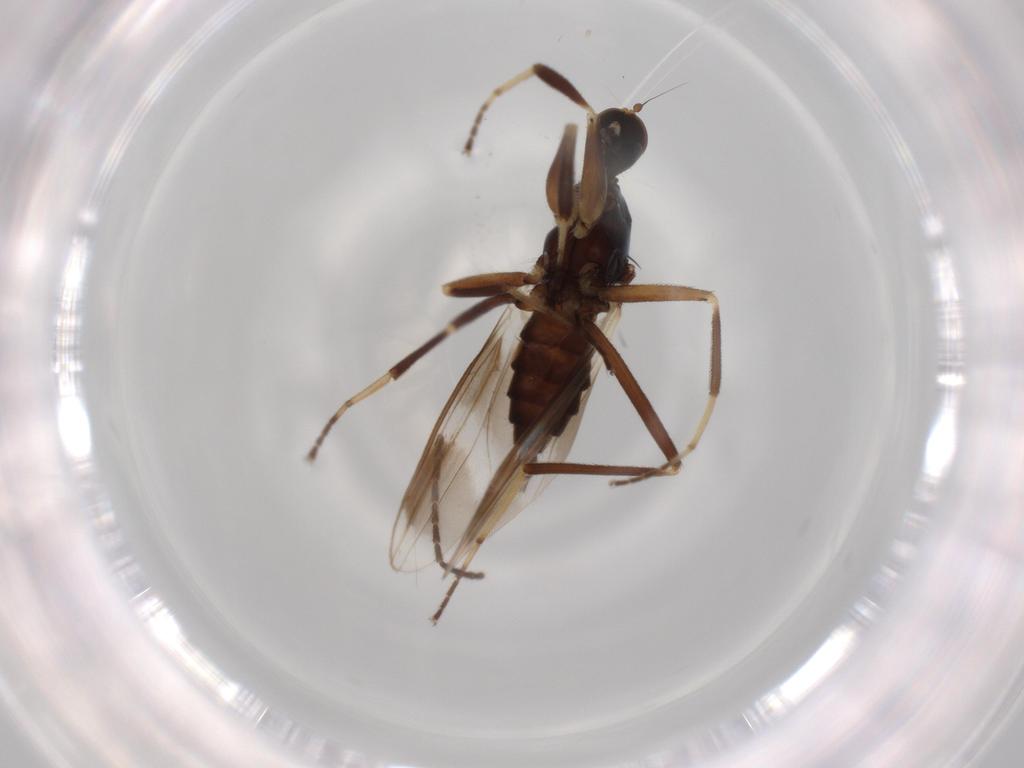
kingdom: Animalia
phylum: Arthropoda
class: Insecta
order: Diptera
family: Hybotidae
